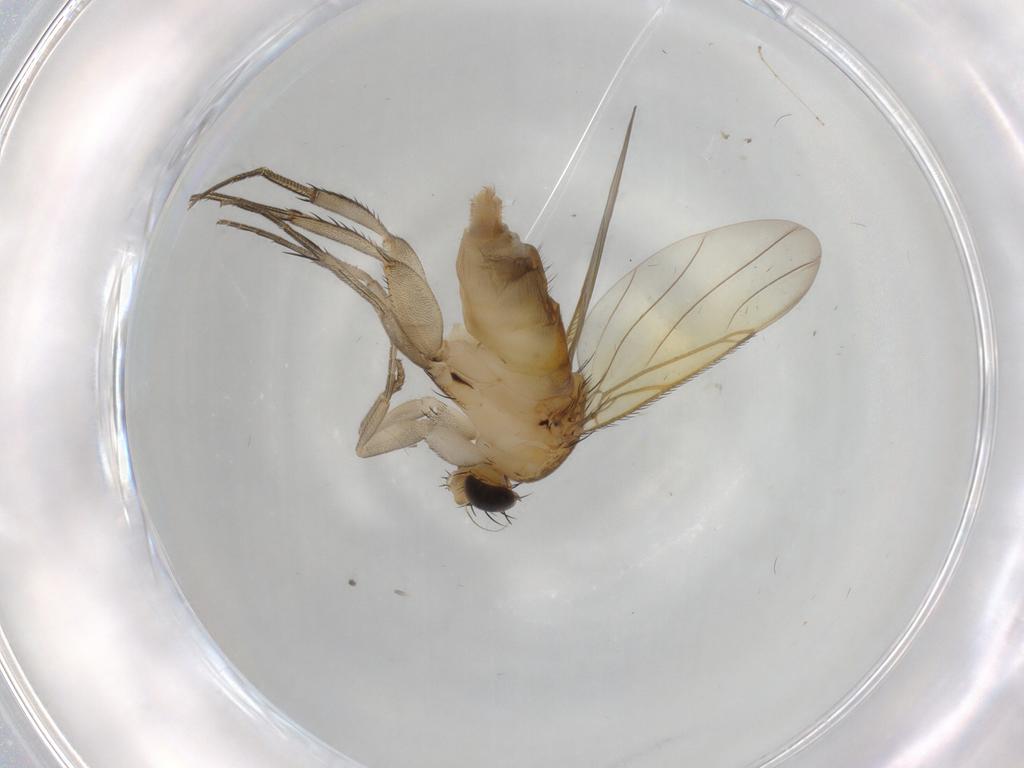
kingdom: Animalia
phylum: Arthropoda
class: Insecta
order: Diptera
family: Phoridae
